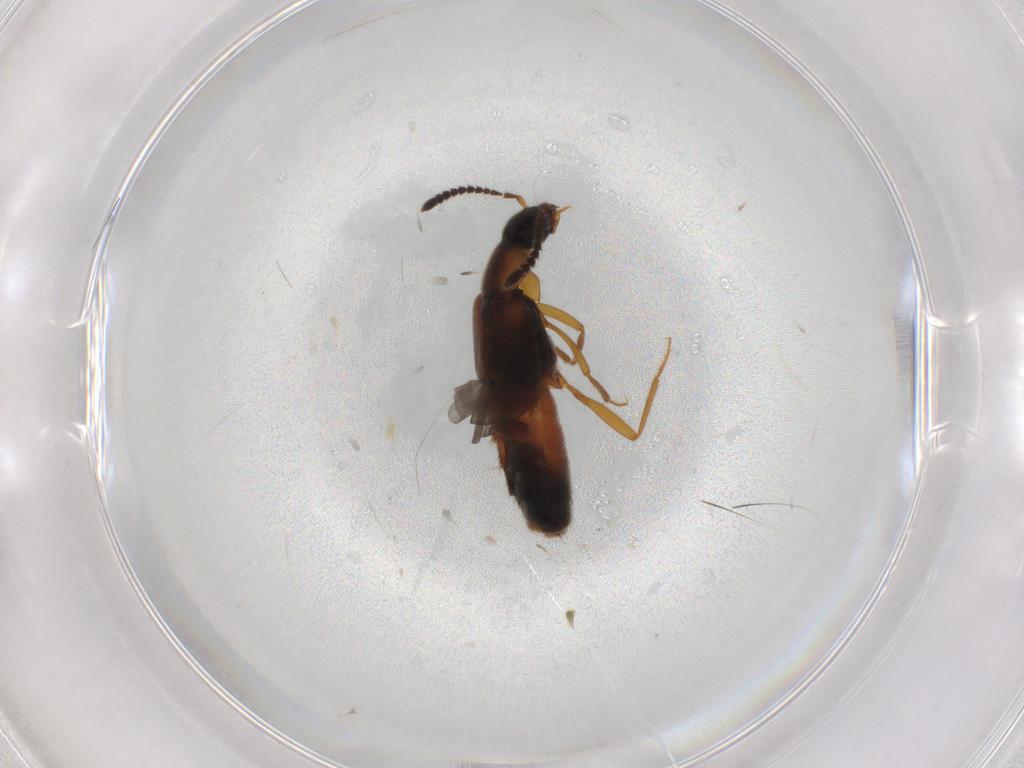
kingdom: Animalia
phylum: Arthropoda
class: Insecta
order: Coleoptera
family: Staphylinidae
